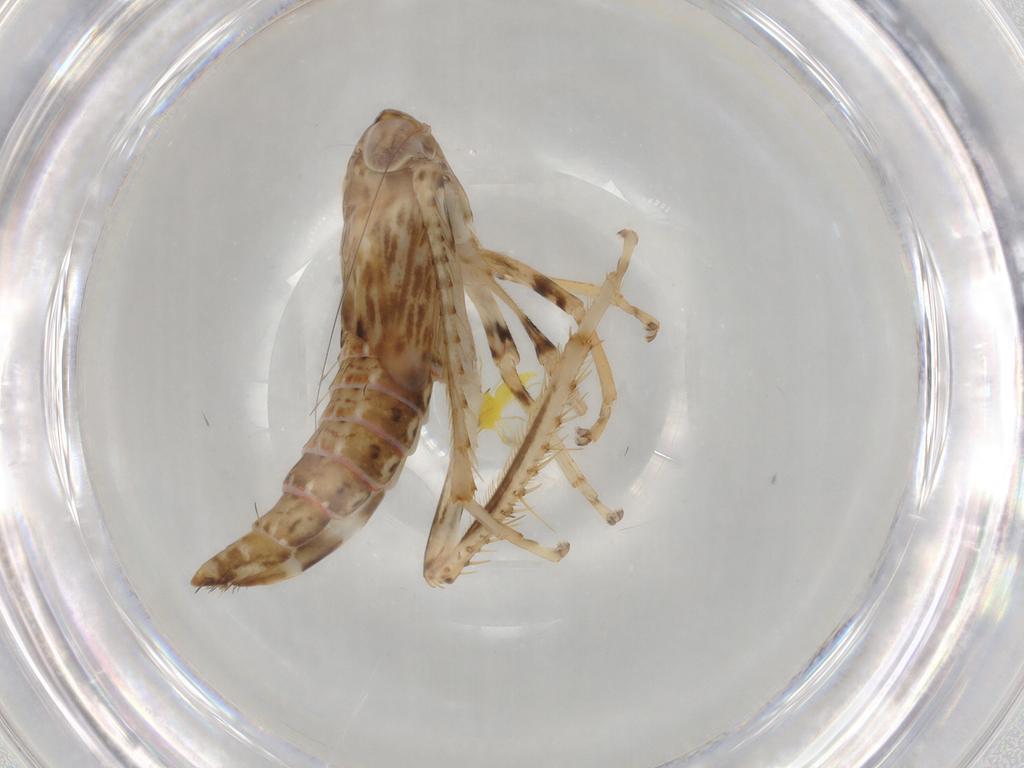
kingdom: Animalia
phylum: Arthropoda
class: Insecta
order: Hemiptera
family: Cicadellidae
